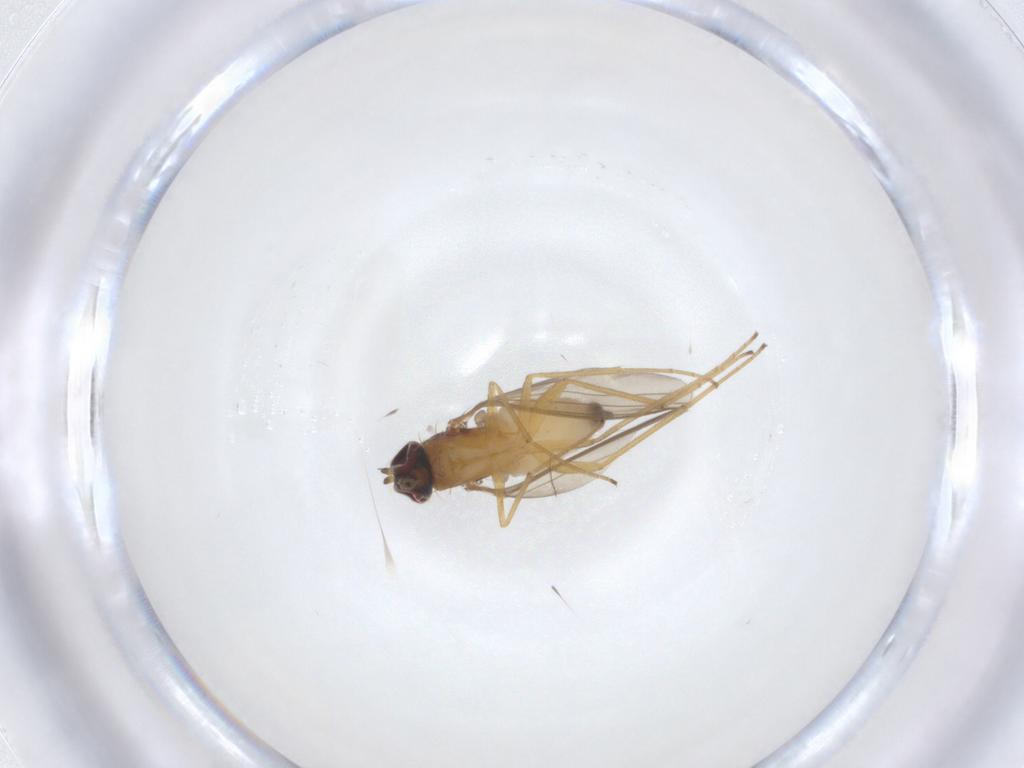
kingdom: Animalia
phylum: Arthropoda
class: Insecta
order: Diptera
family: Dolichopodidae
